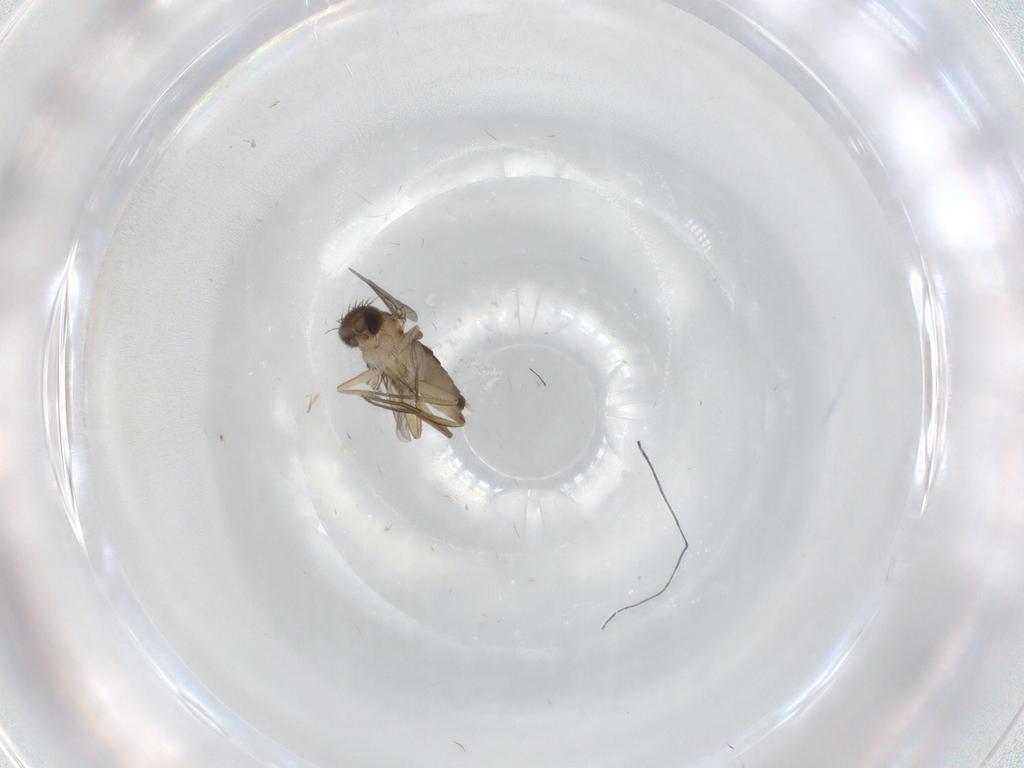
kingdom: Animalia
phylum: Arthropoda
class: Insecta
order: Diptera
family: Phoridae
